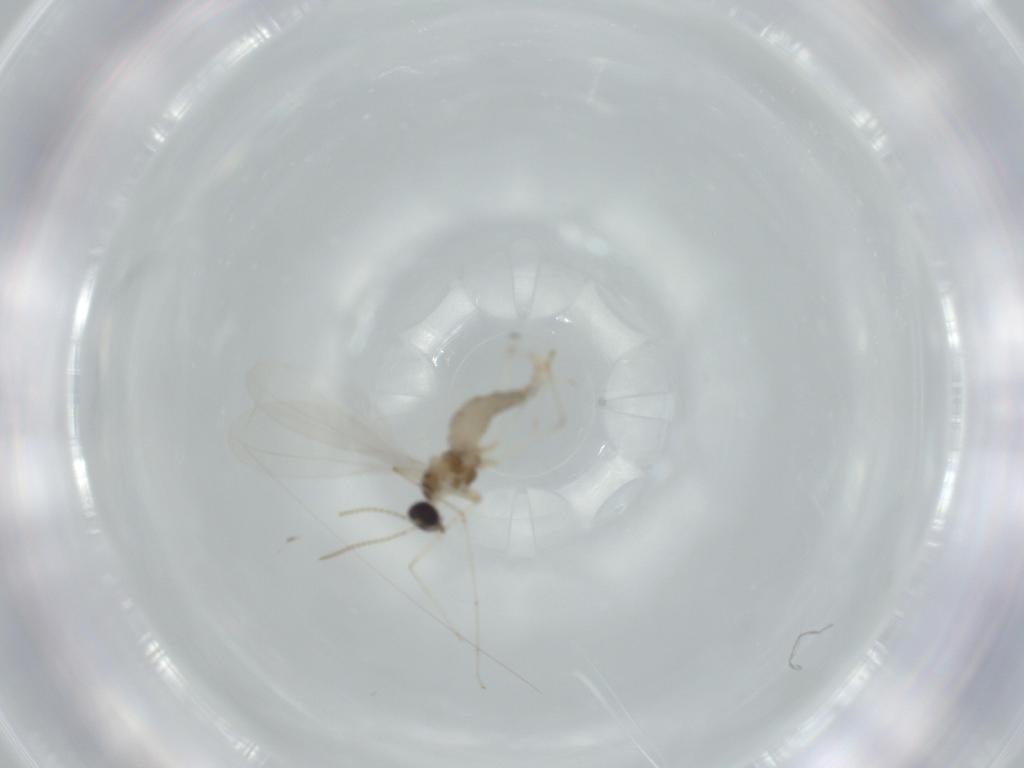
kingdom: Animalia
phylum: Arthropoda
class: Insecta
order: Diptera
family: Cecidomyiidae
